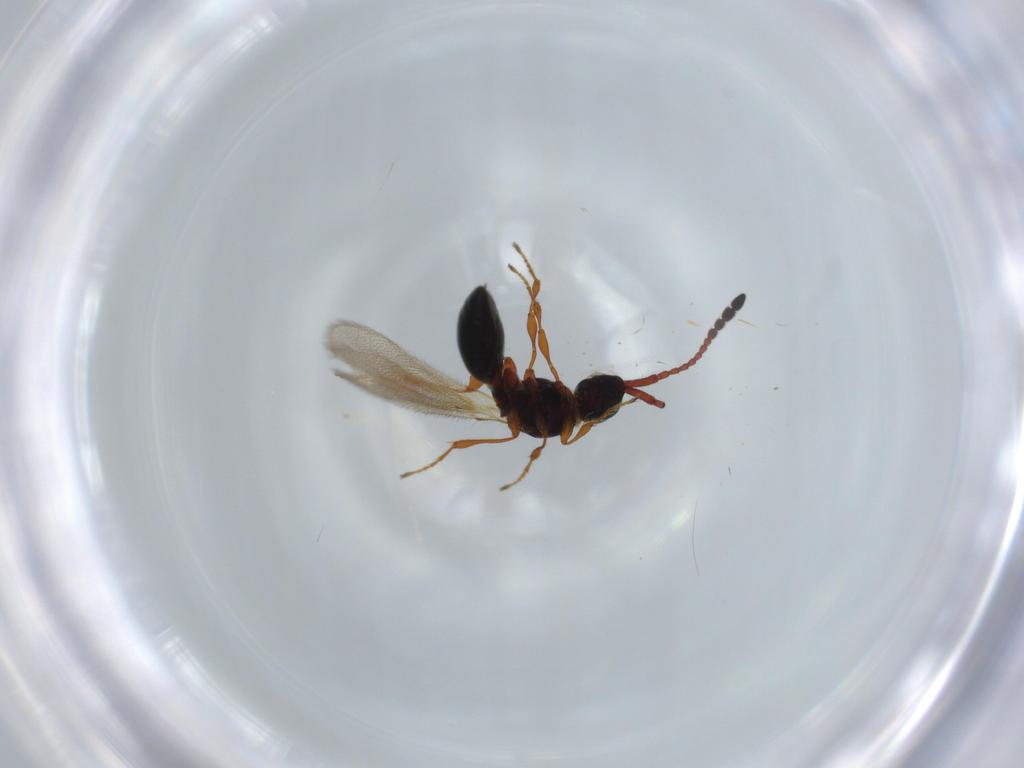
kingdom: Animalia
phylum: Arthropoda
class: Insecta
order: Hymenoptera
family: Diapriidae
